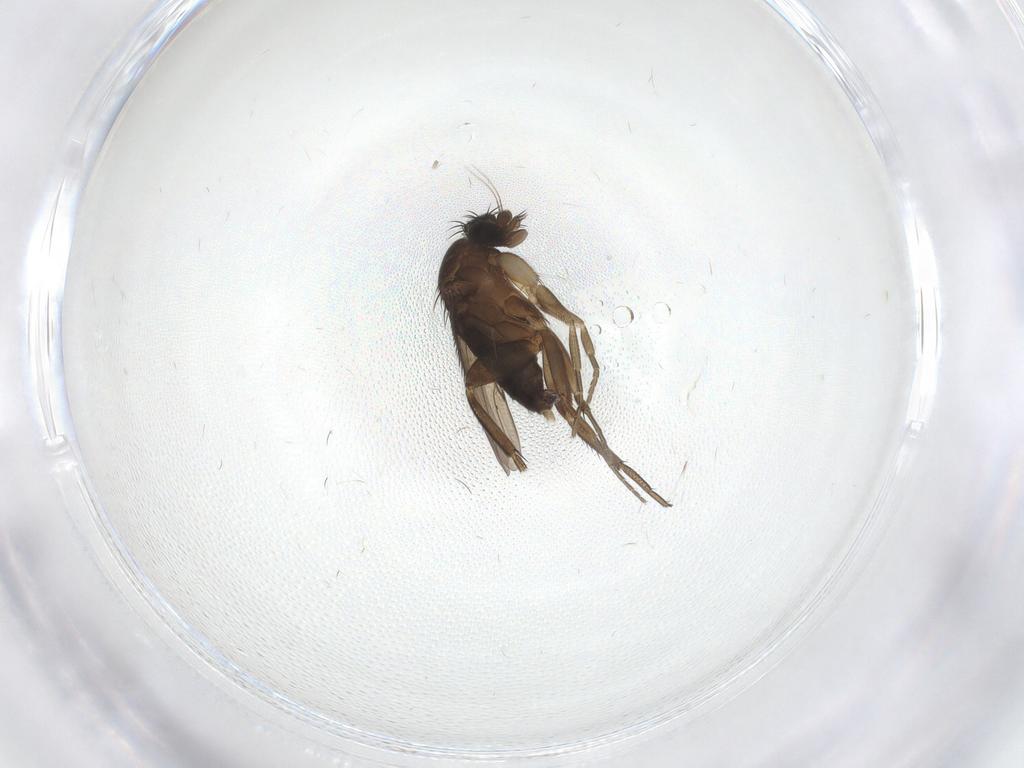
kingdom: Animalia
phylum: Arthropoda
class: Insecta
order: Diptera
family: Phoridae
